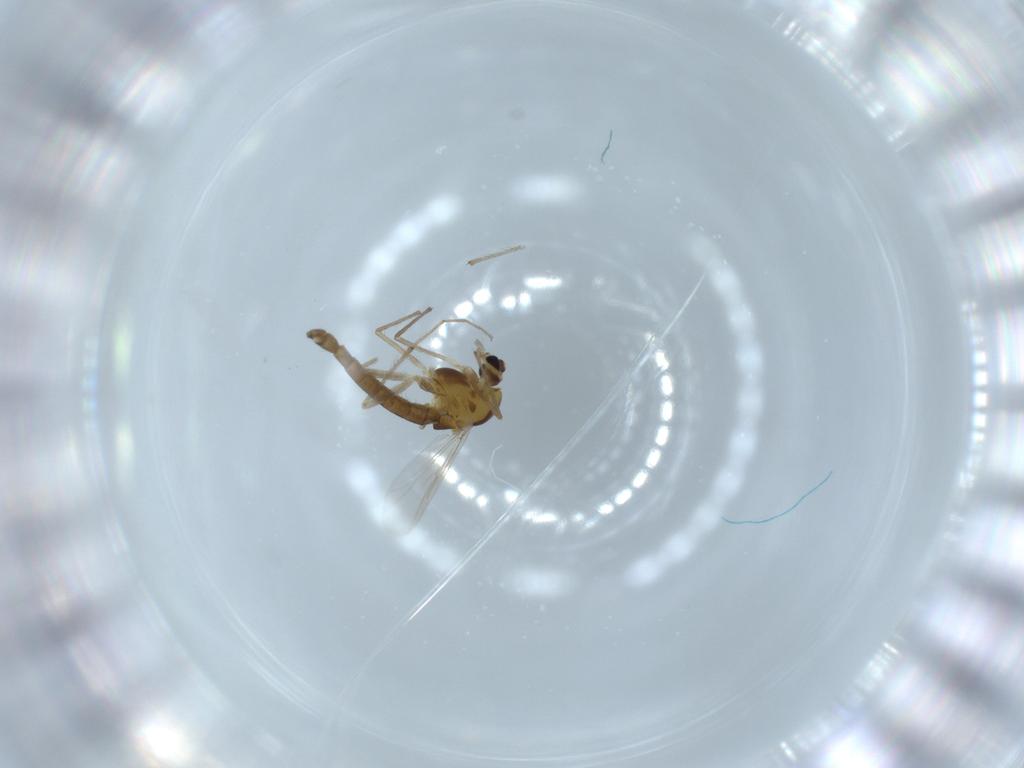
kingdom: Animalia
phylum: Arthropoda
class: Insecta
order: Diptera
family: Chironomidae
